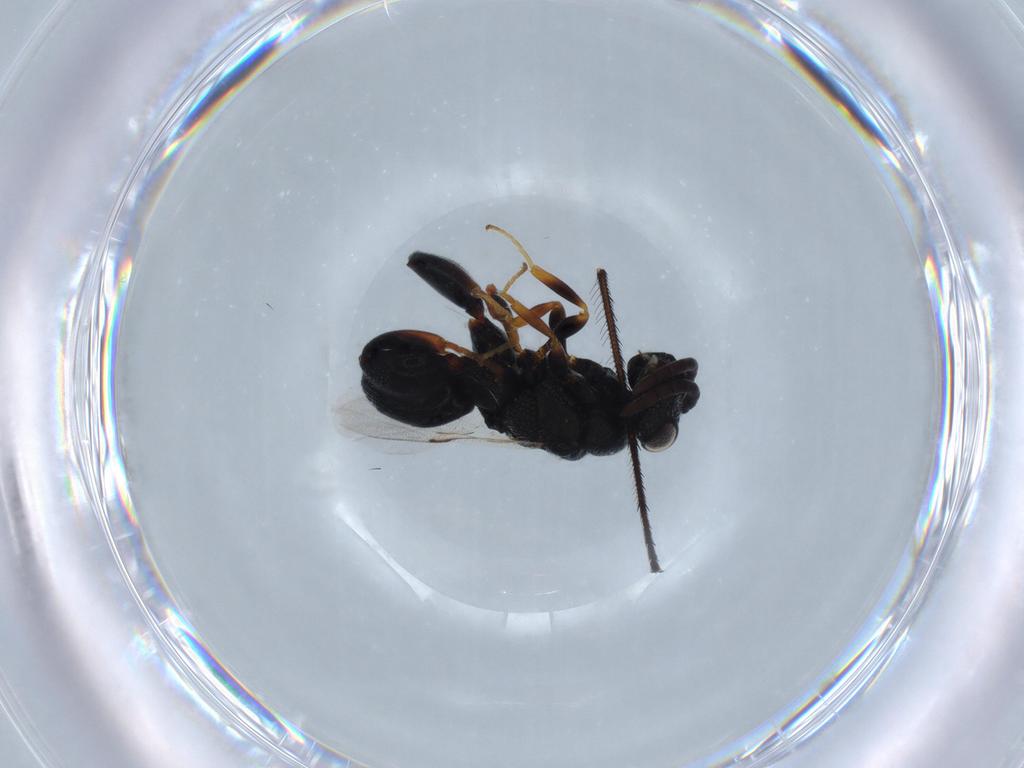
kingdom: Animalia
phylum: Arthropoda
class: Insecta
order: Hymenoptera
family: Chalcididae
